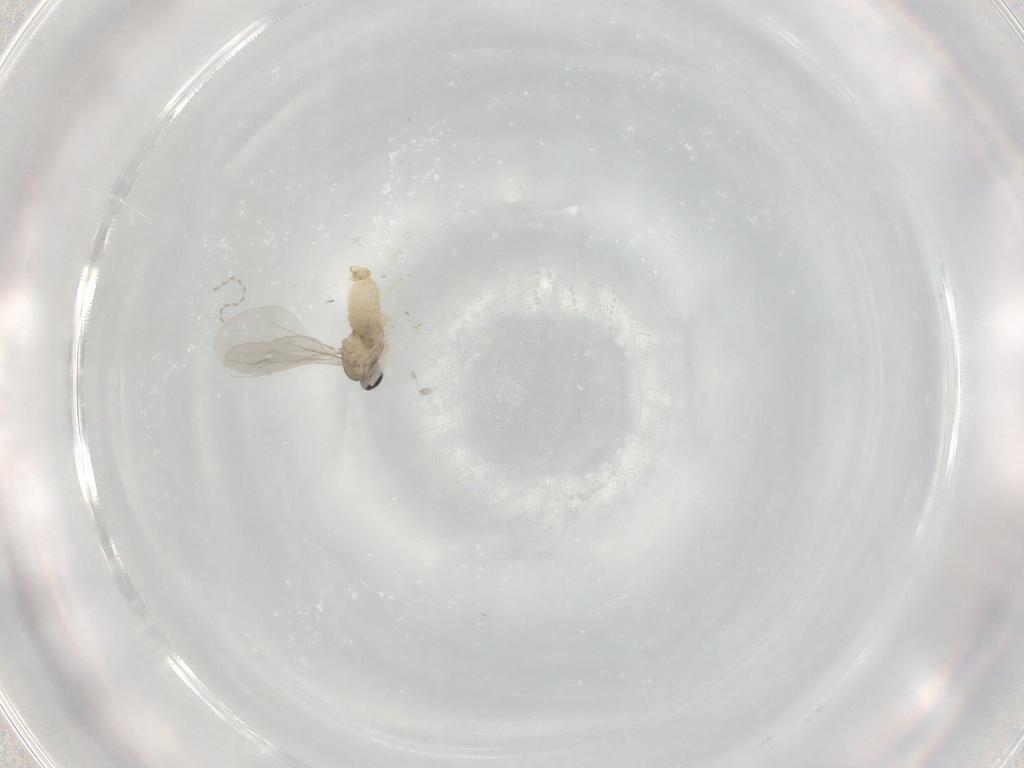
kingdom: Animalia
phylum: Arthropoda
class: Insecta
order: Diptera
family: Cecidomyiidae
